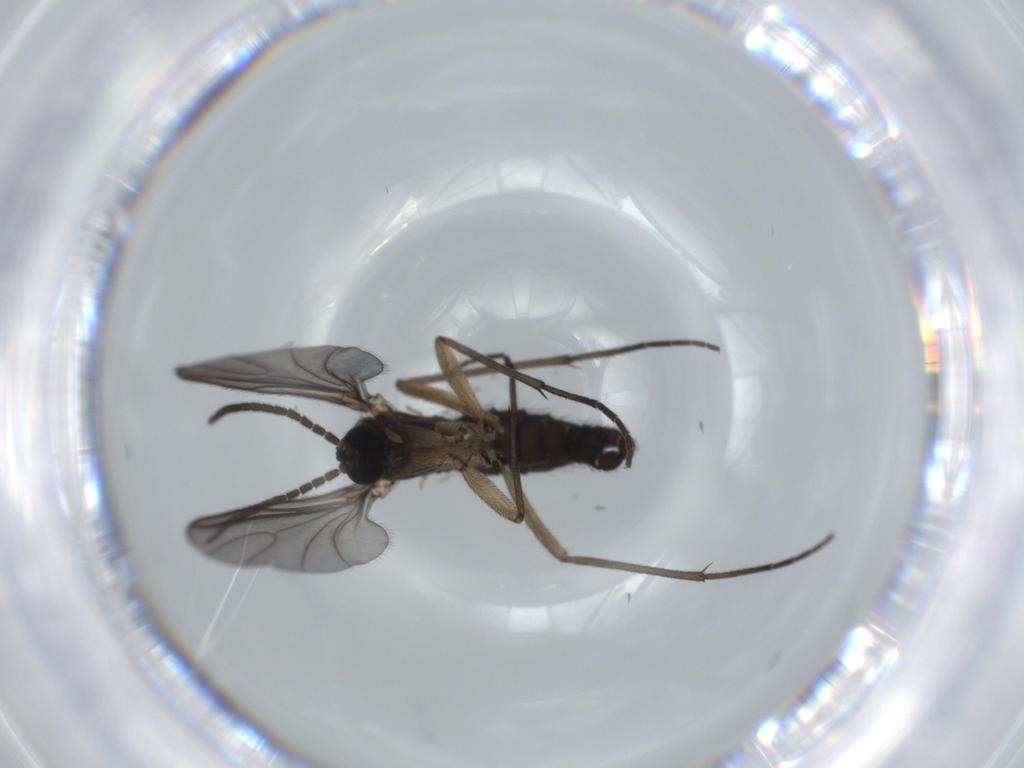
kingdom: Animalia
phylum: Arthropoda
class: Insecta
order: Diptera
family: Sciaridae
